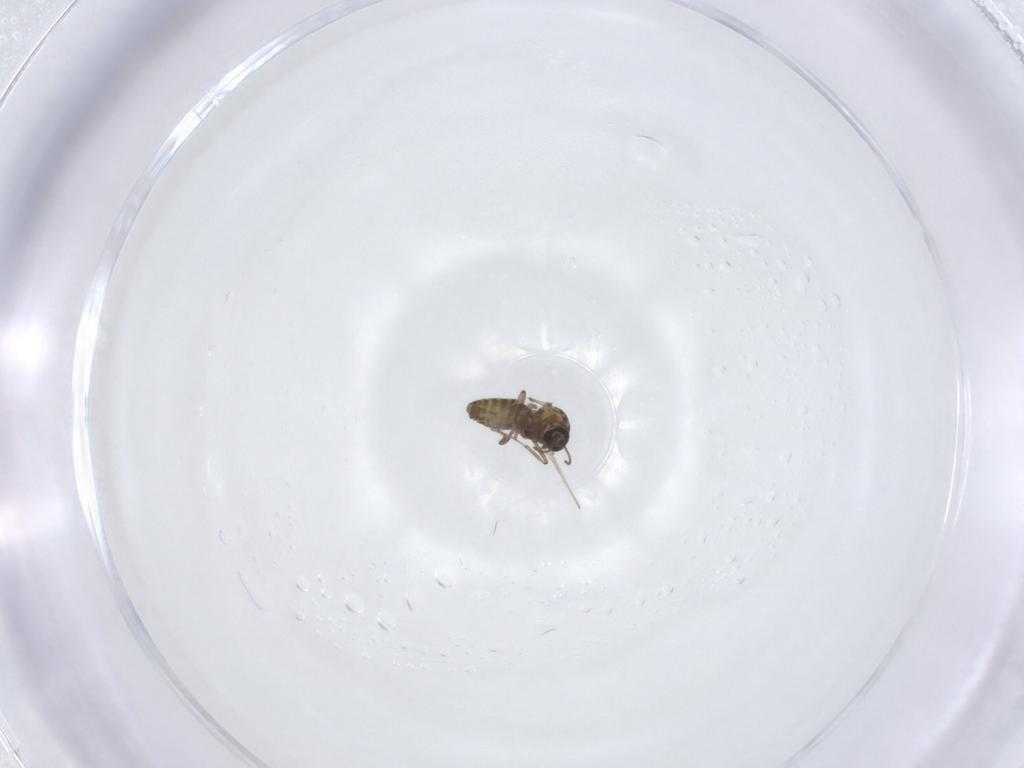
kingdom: Animalia
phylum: Arthropoda
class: Insecta
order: Diptera
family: Ceratopogonidae
